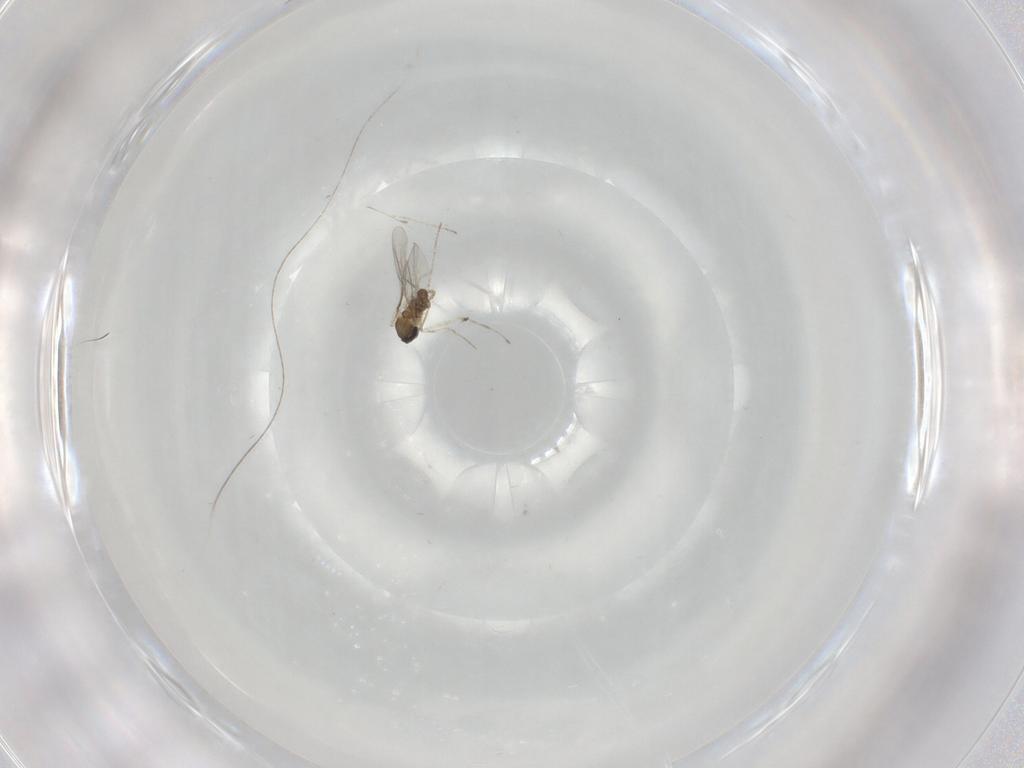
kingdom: Animalia
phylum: Arthropoda
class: Insecta
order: Diptera
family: Cecidomyiidae
